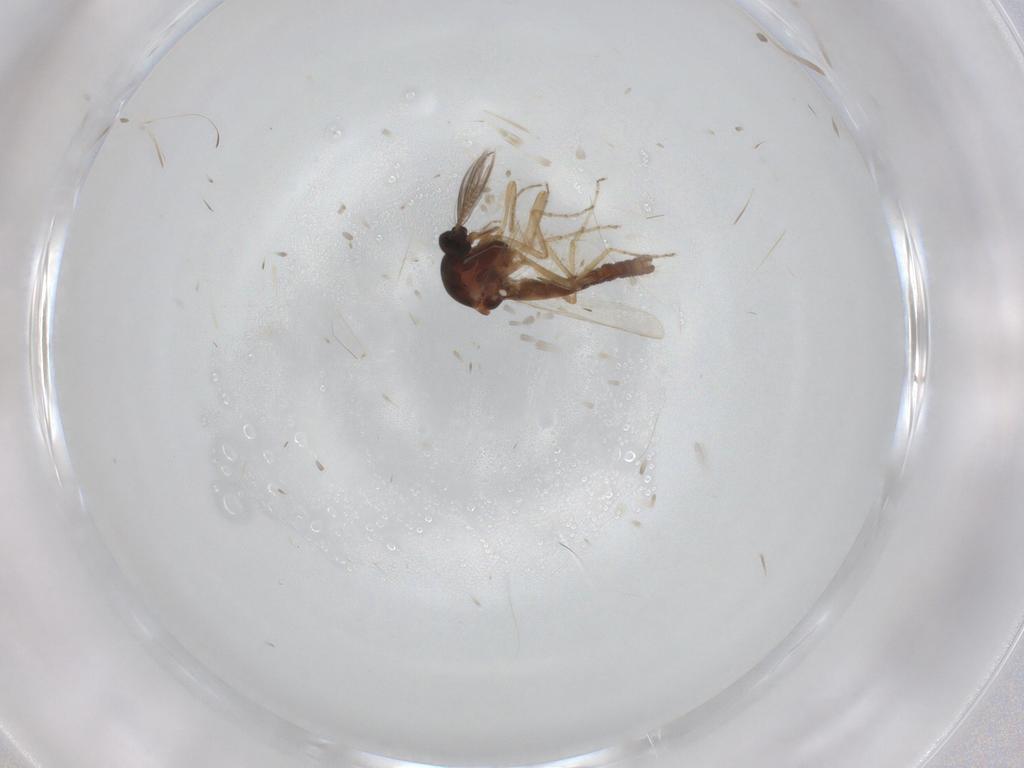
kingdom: Animalia
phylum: Arthropoda
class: Insecta
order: Diptera
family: Ceratopogonidae
